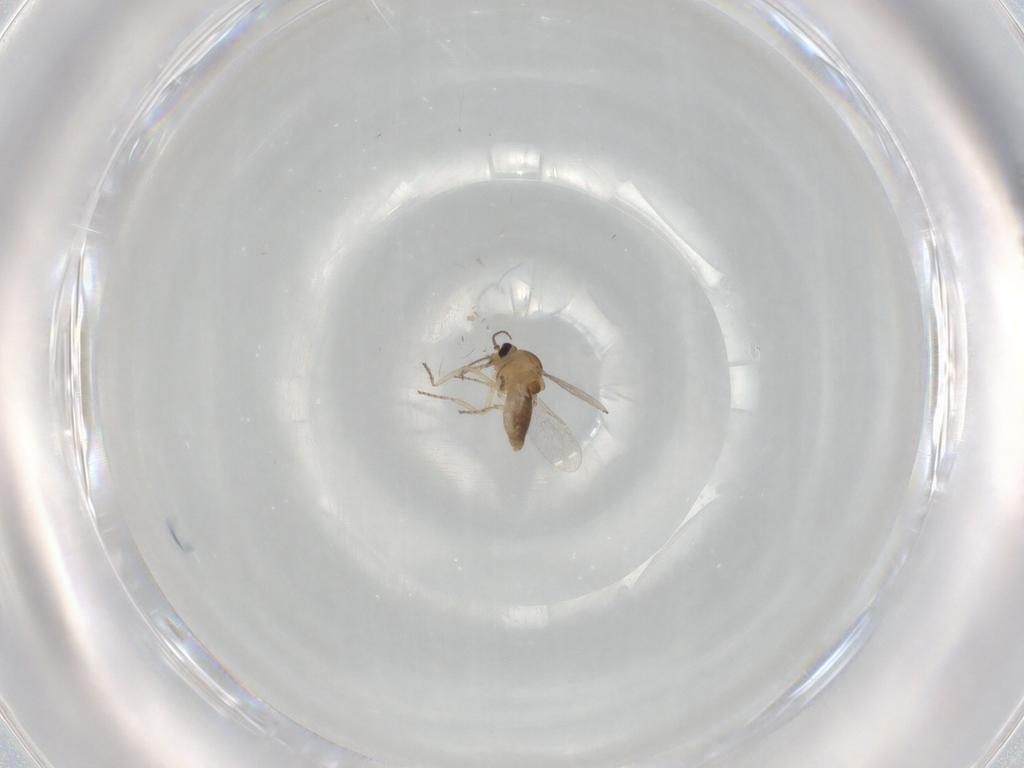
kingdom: Animalia
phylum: Arthropoda
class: Insecta
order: Diptera
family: Ceratopogonidae
